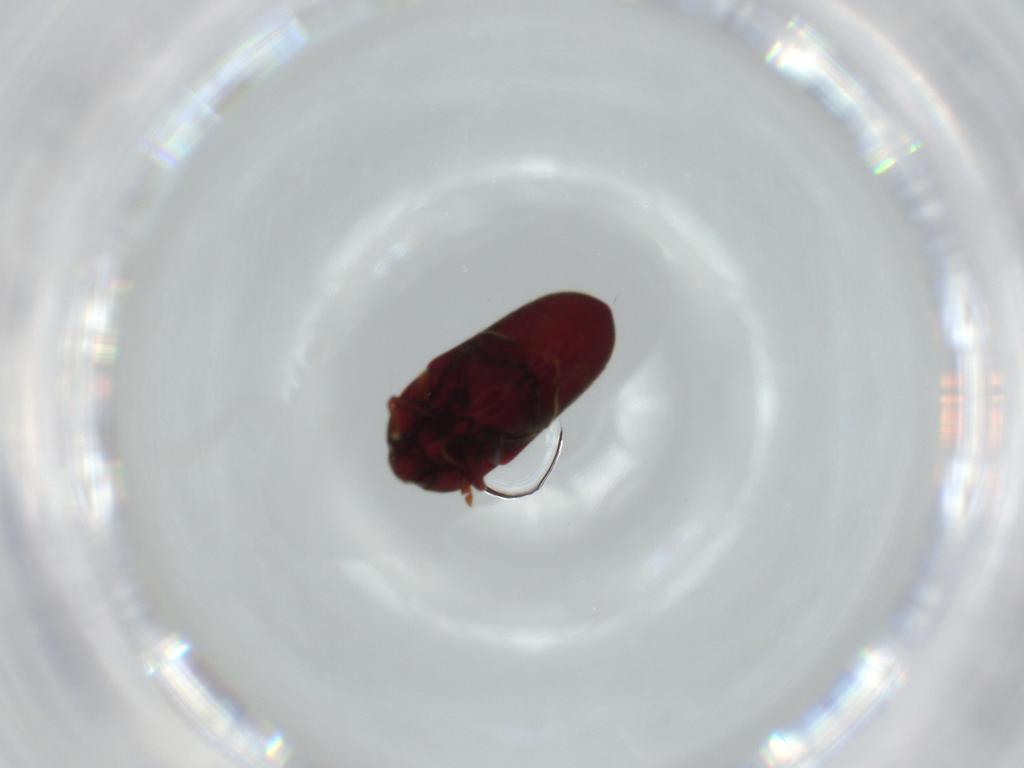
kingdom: Animalia
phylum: Arthropoda
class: Insecta
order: Coleoptera
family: Throscidae
